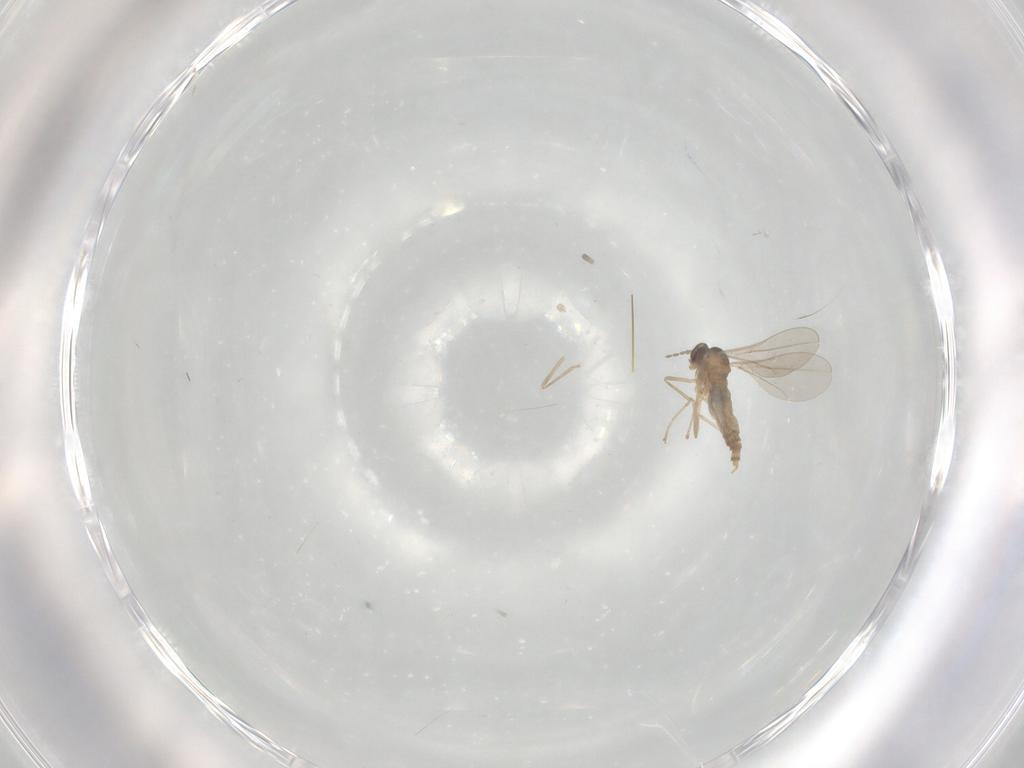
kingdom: Animalia
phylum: Arthropoda
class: Insecta
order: Diptera
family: Cecidomyiidae
